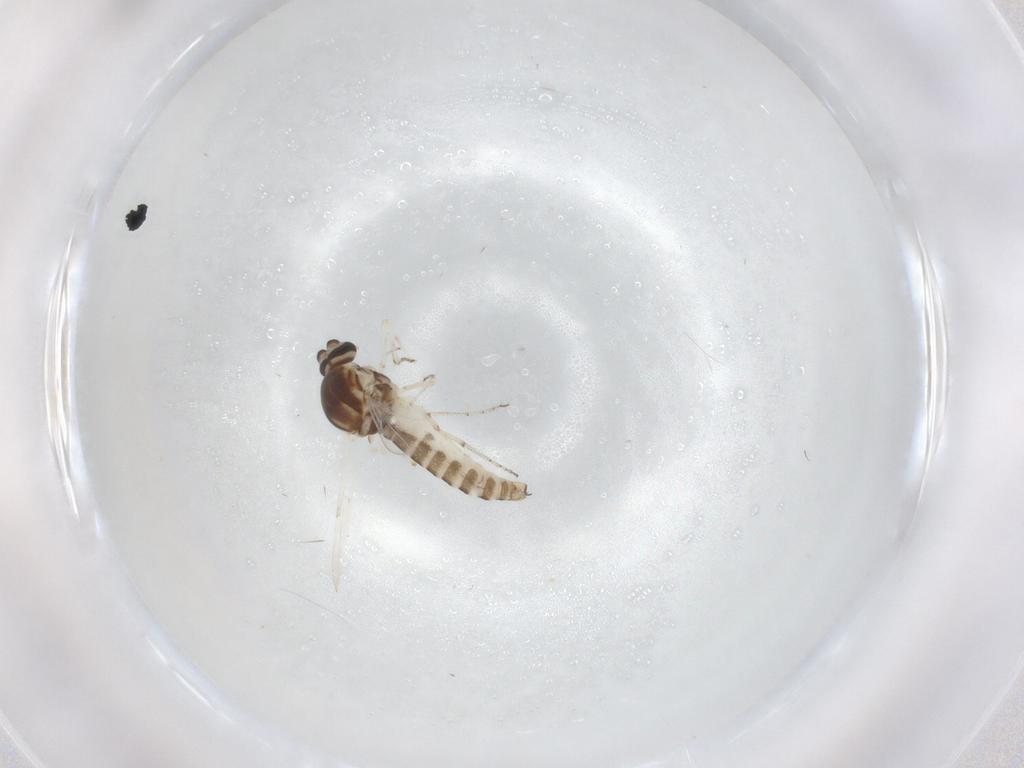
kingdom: Animalia
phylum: Arthropoda
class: Insecta
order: Diptera
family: Ceratopogonidae
